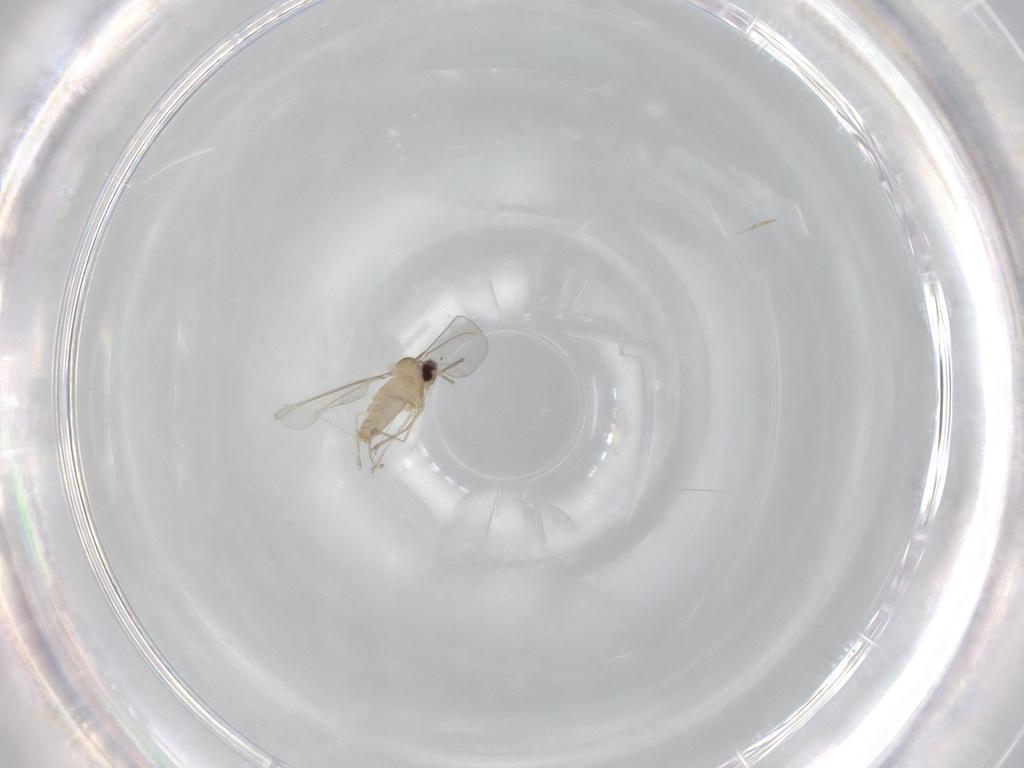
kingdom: Animalia
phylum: Arthropoda
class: Insecta
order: Diptera
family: Cecidomyiidae
